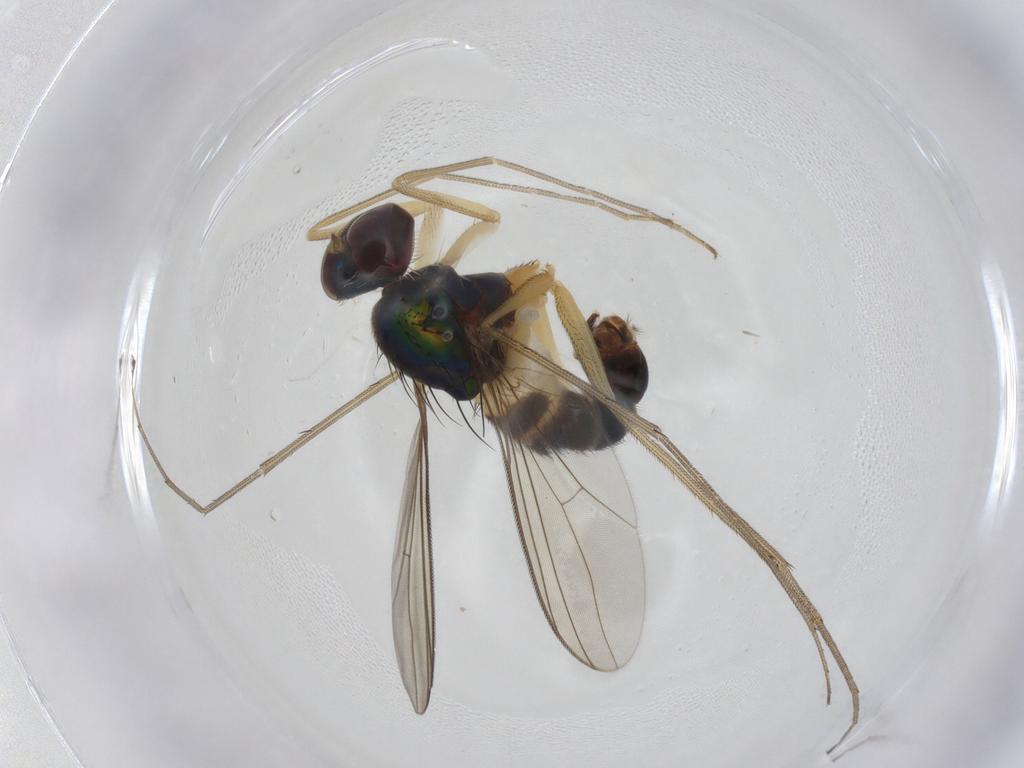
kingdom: Animalia
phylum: Arthropoda
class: Insecta
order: Diptera
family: Dolichopodidae
